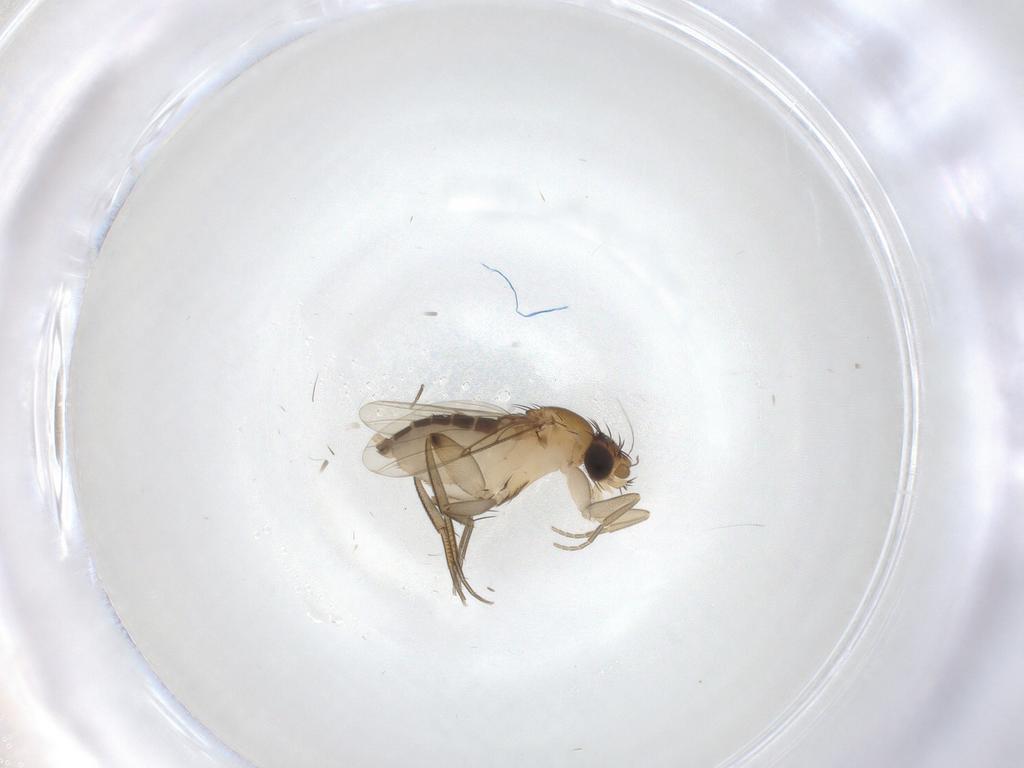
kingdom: Animalia
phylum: Arthropoda
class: Insecta
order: Diptera
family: Phoridae
